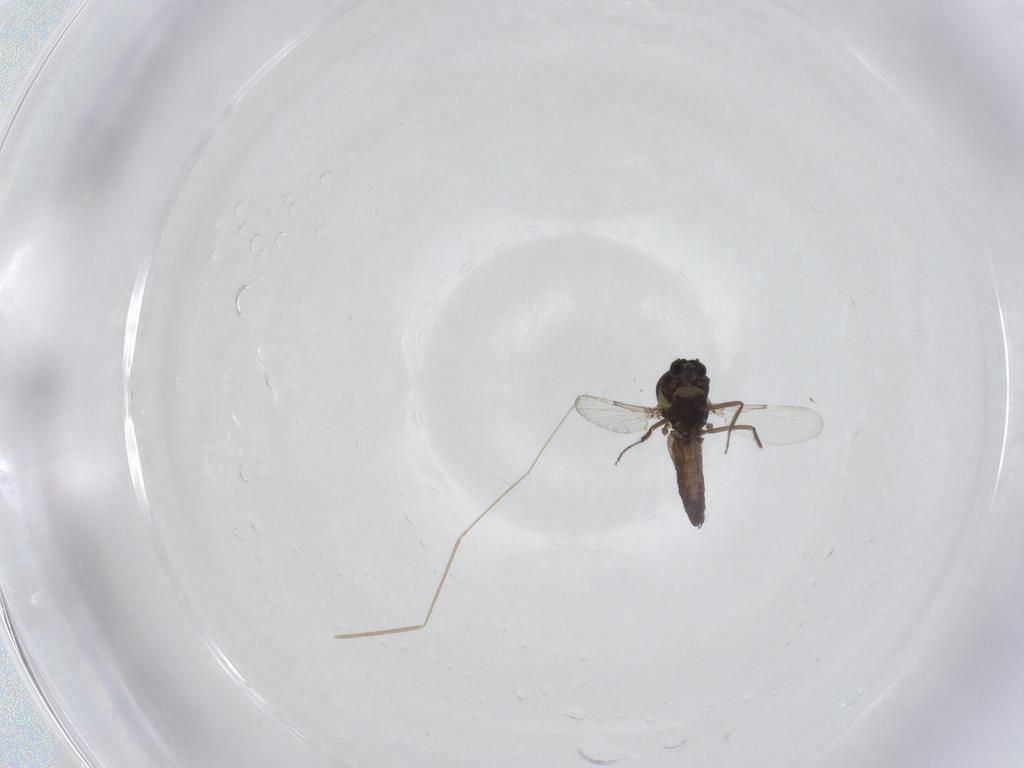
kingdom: Animalia
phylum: Arthropoda
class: Insecta
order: Diptera
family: Ceratopogonidae
